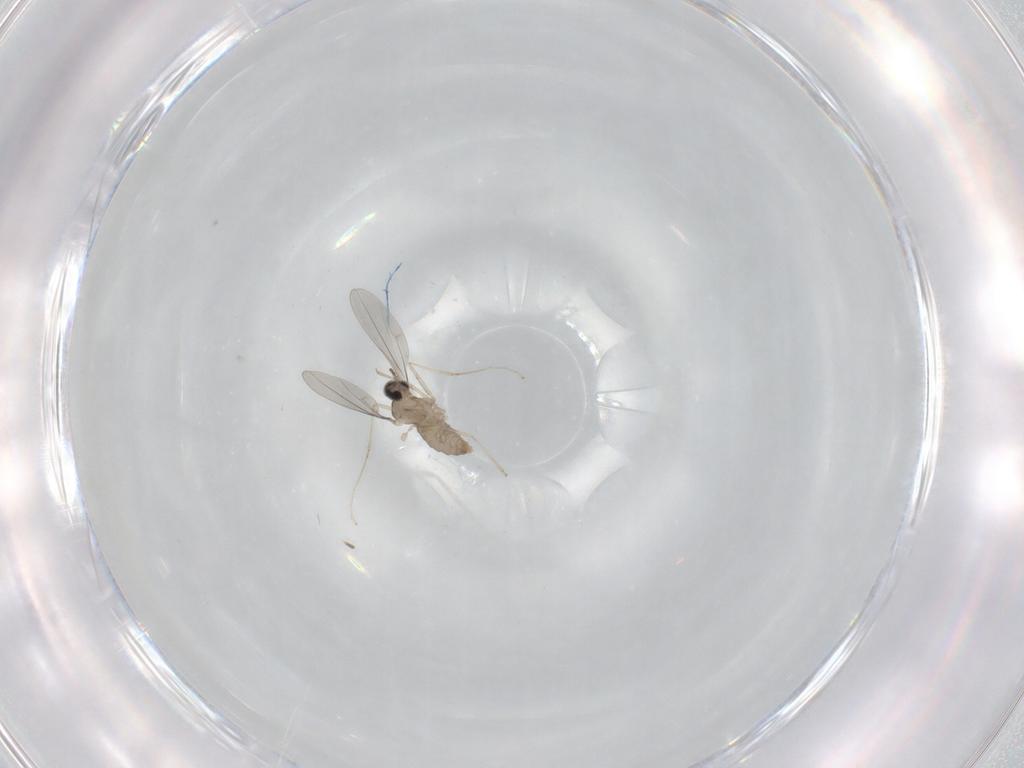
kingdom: Animalia
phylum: Arthropoda
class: Insecta
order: Diptera
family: Cecidomyiidae
